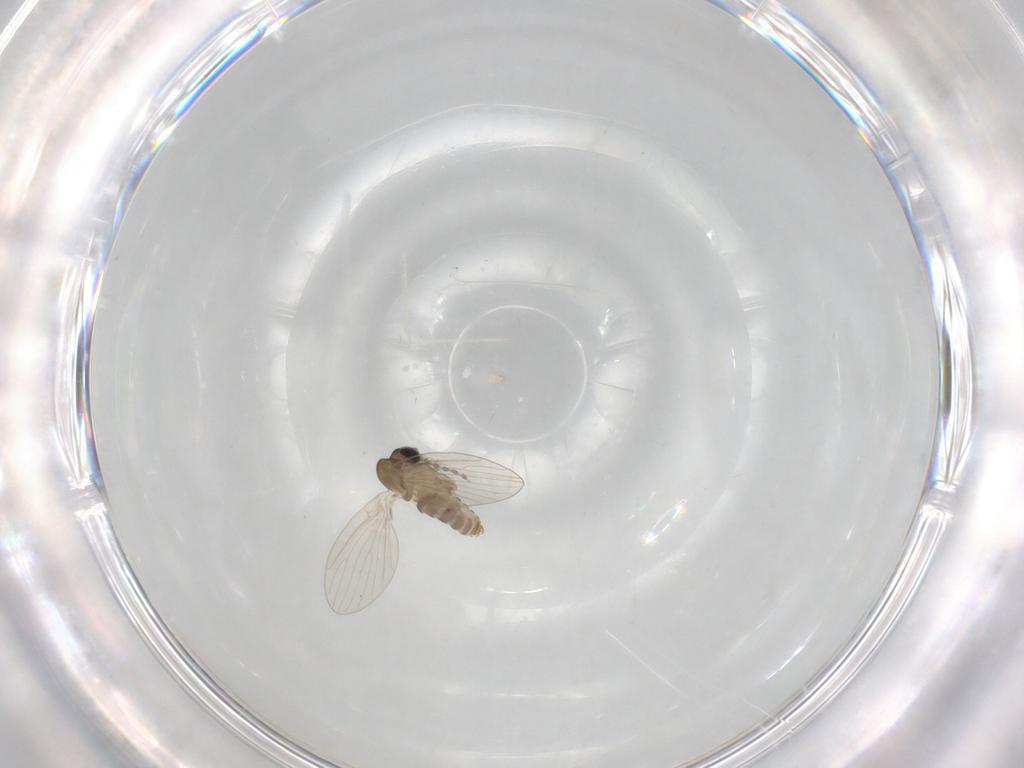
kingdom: Animalia
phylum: Arthropoda
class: Insecta
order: Diptera
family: Psychodidae
